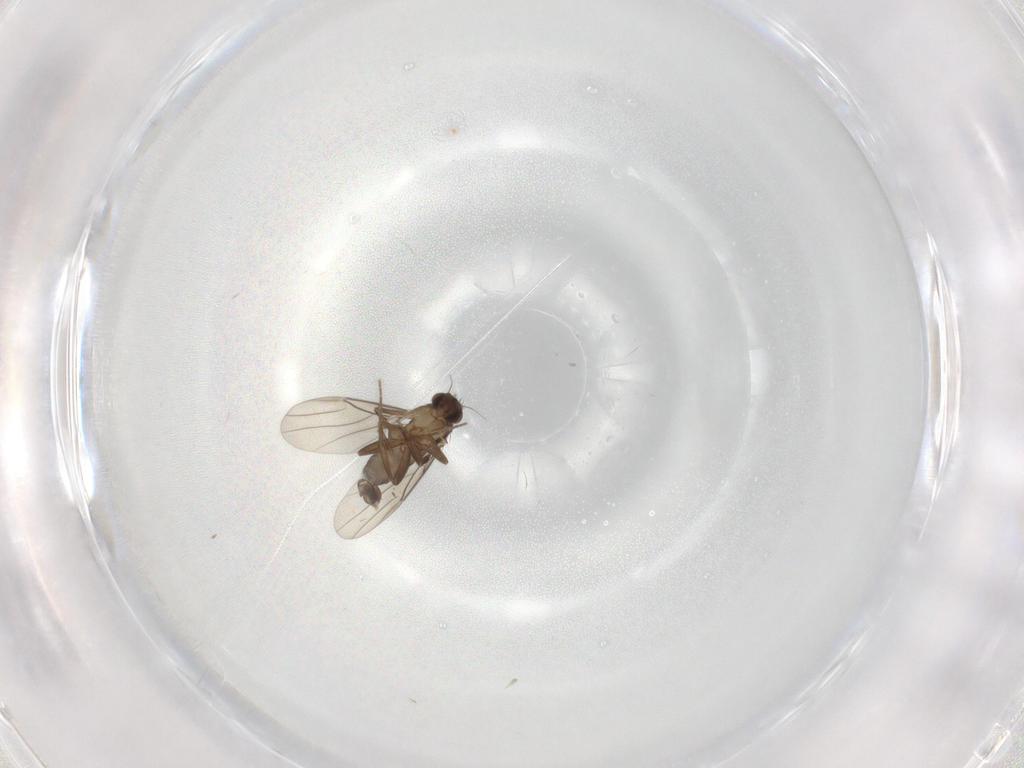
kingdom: Animalia
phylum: Arthropoda
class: Insecta
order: Diptera
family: Phoridae
